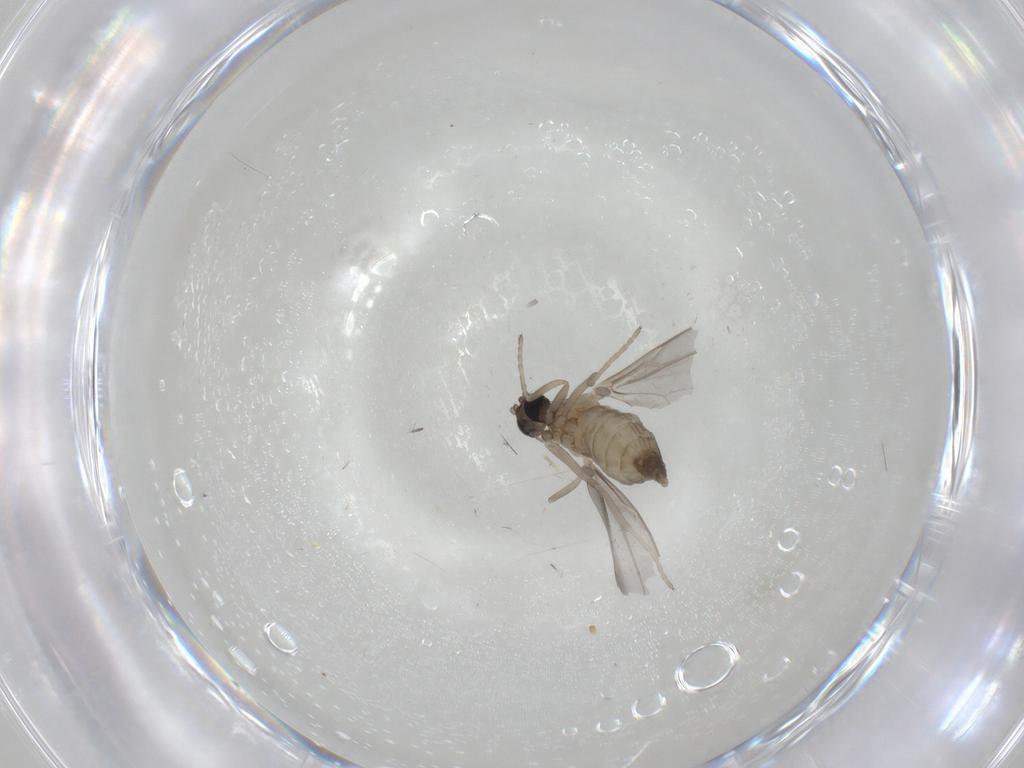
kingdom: Animalia
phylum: Arthropoda
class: Insecta
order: Diptera
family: Cecidomyiidae
